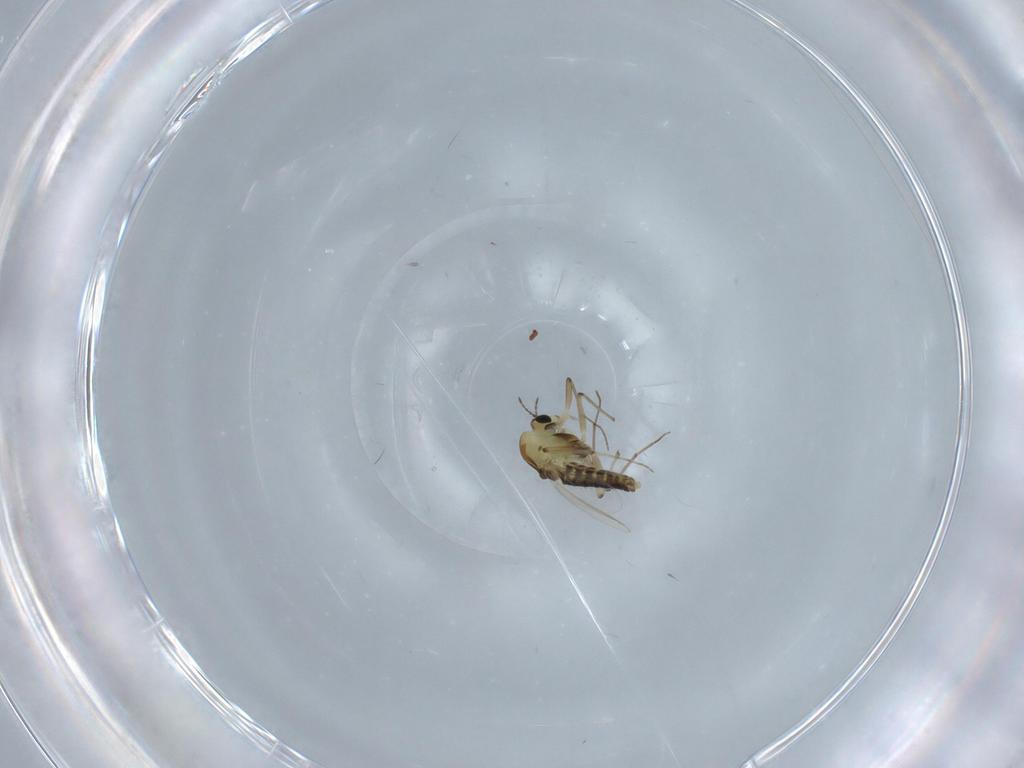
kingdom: Animalia
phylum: Arthropoda
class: Insecta
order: Diptera
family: Chironomidae
